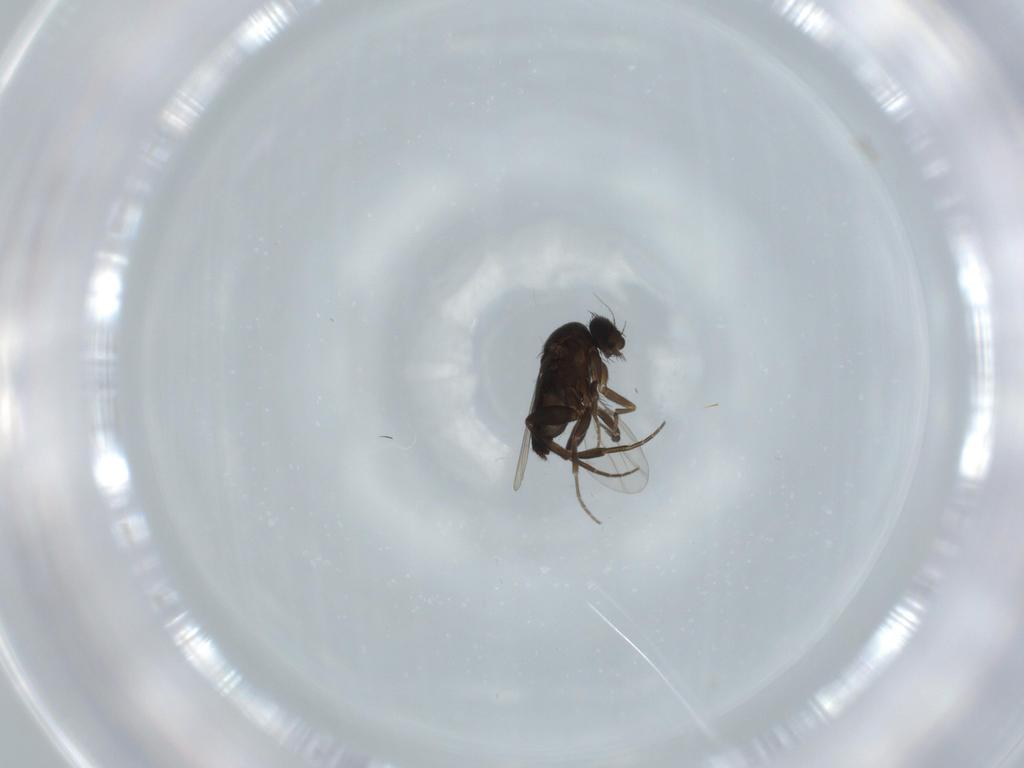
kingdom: Animalia
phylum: Arthropoda
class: Insecta
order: Diptera
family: Phoridae
